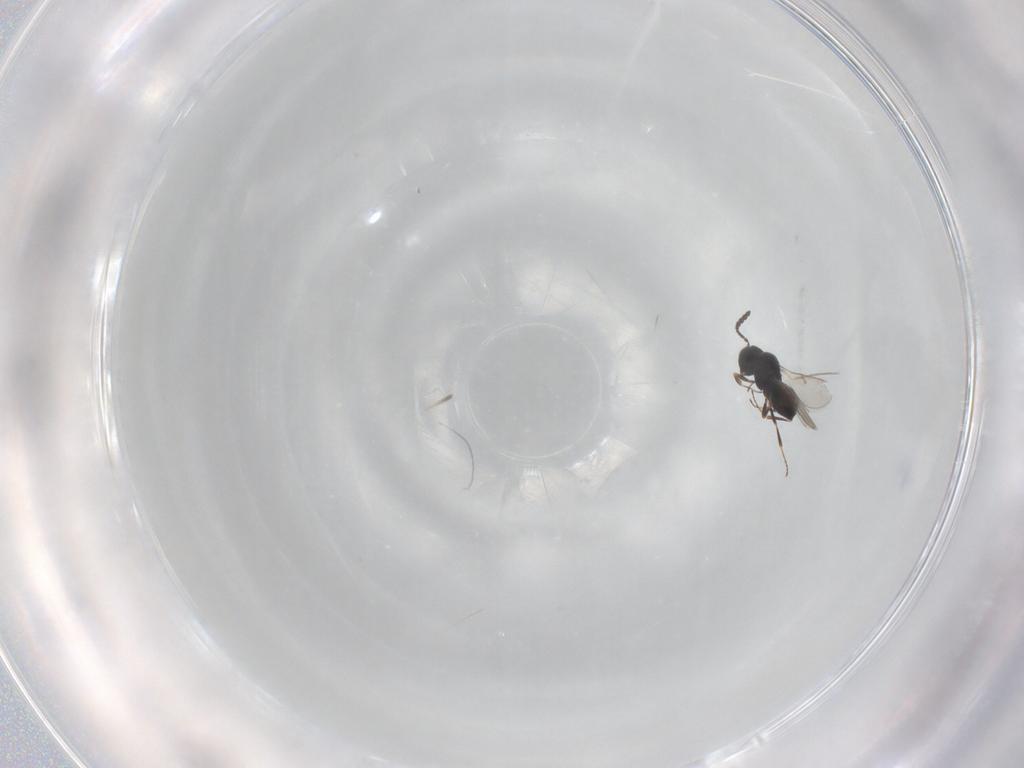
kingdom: Animalia
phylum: Arthropoda
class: Insecta
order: Hymenoptera
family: Scelionidae
